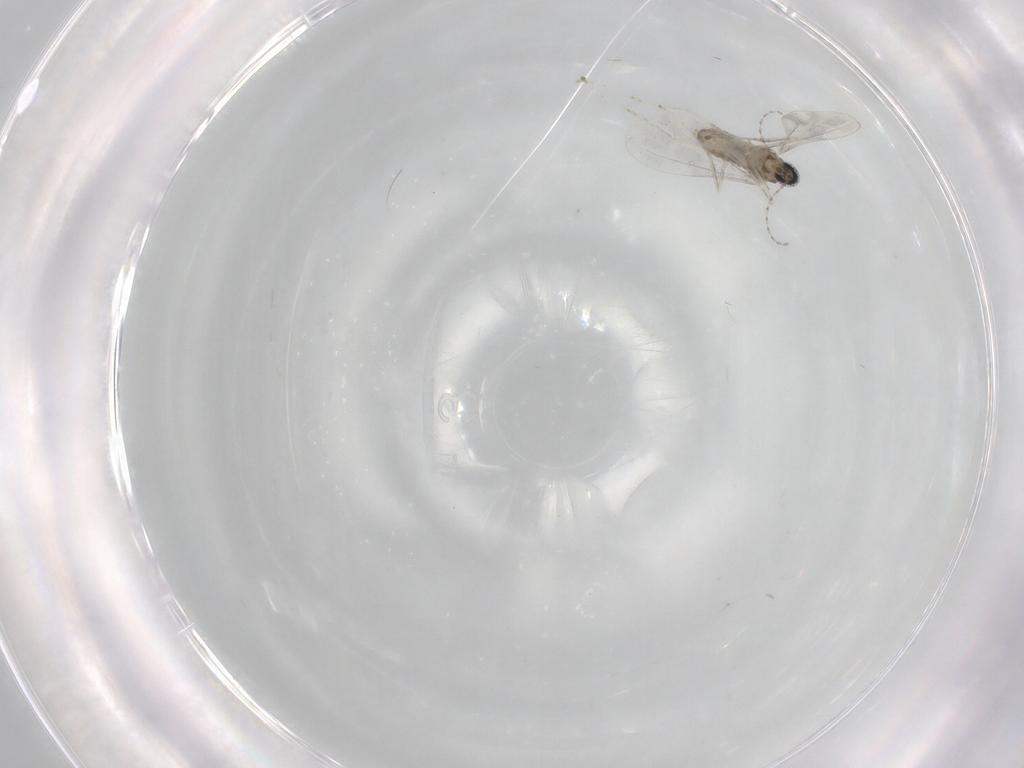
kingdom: Animalia
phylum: Arthropoda
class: Insecta
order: Diptera
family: Cecidomyiidae
